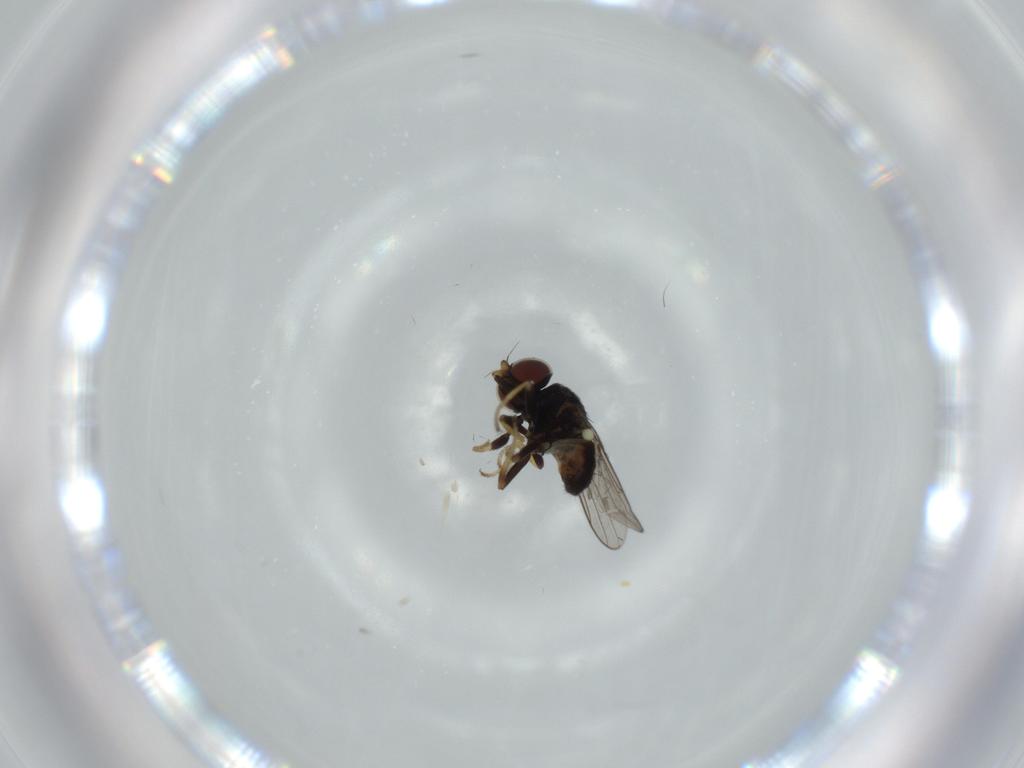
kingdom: Animalia
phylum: Arthropoda
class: Insecta
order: Diptera
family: Chloropidae
